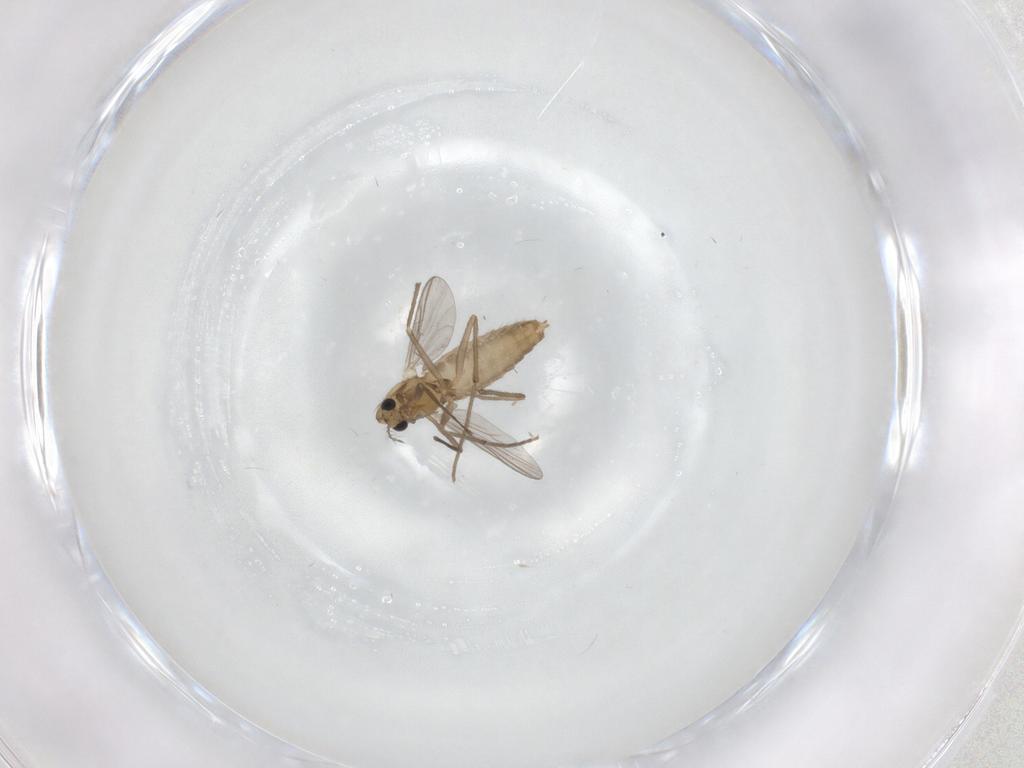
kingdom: Animalia
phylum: Arthropoda
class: Insecta
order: Diptera
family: Chironomidae
